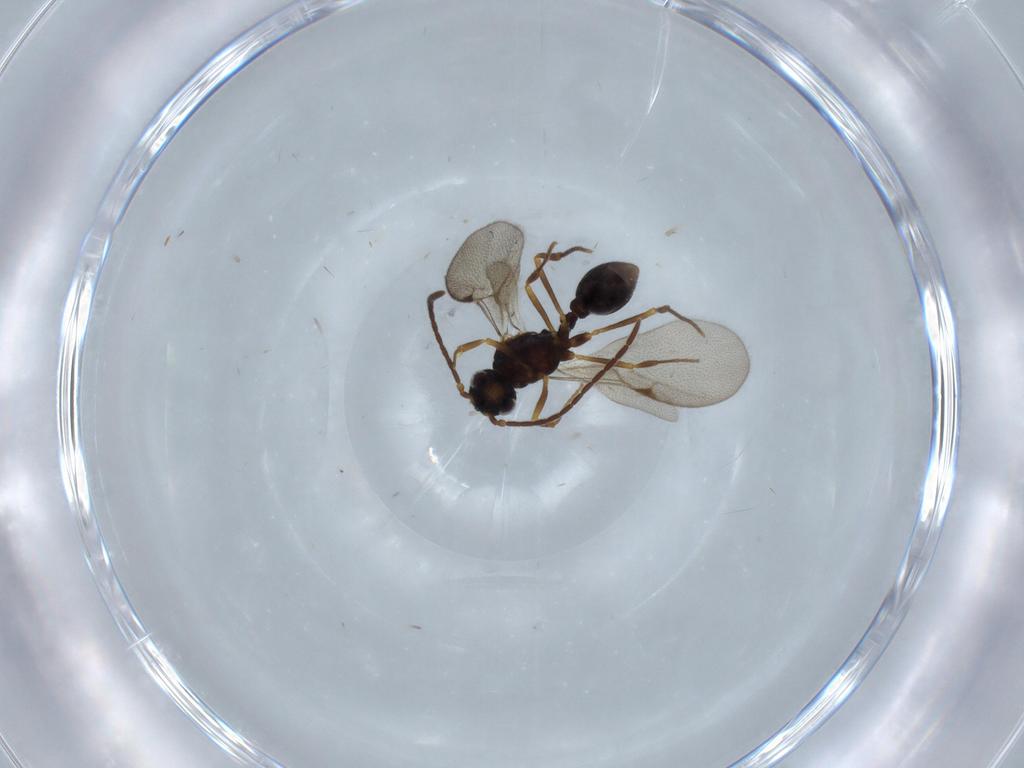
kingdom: Animalia
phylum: Arthropoda
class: Insecta
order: Hymenoptera
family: Formicidae
